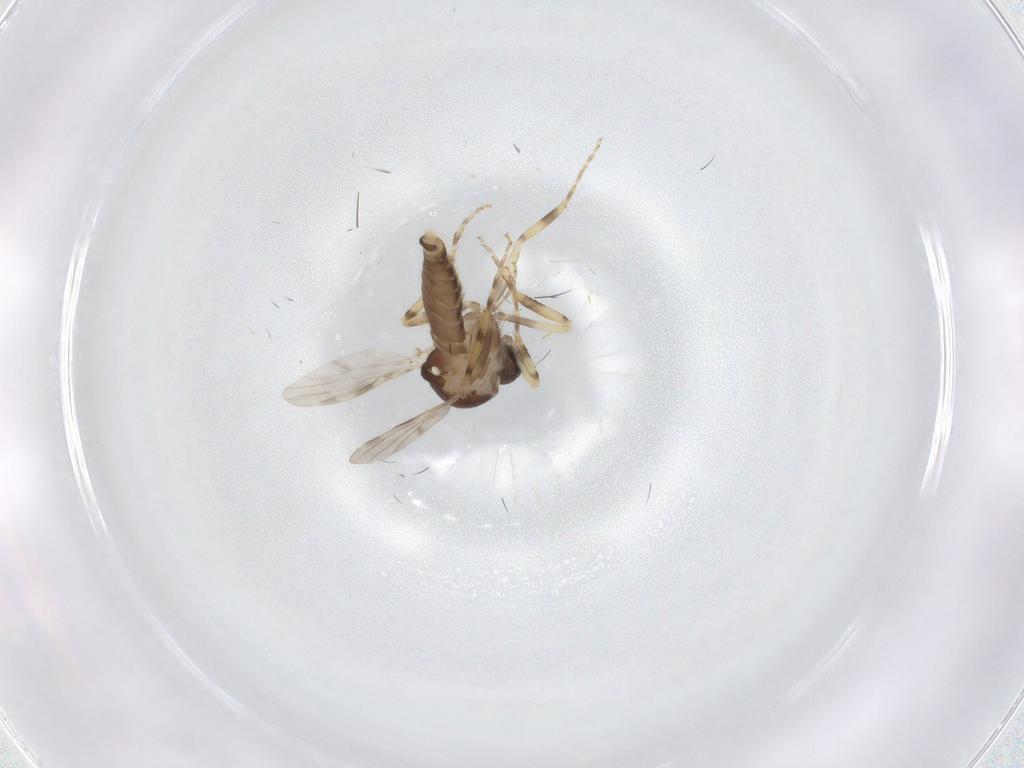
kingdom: Animalia
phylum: Arthropoda
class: Insecta
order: Diptera
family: Ceratopogonidae
